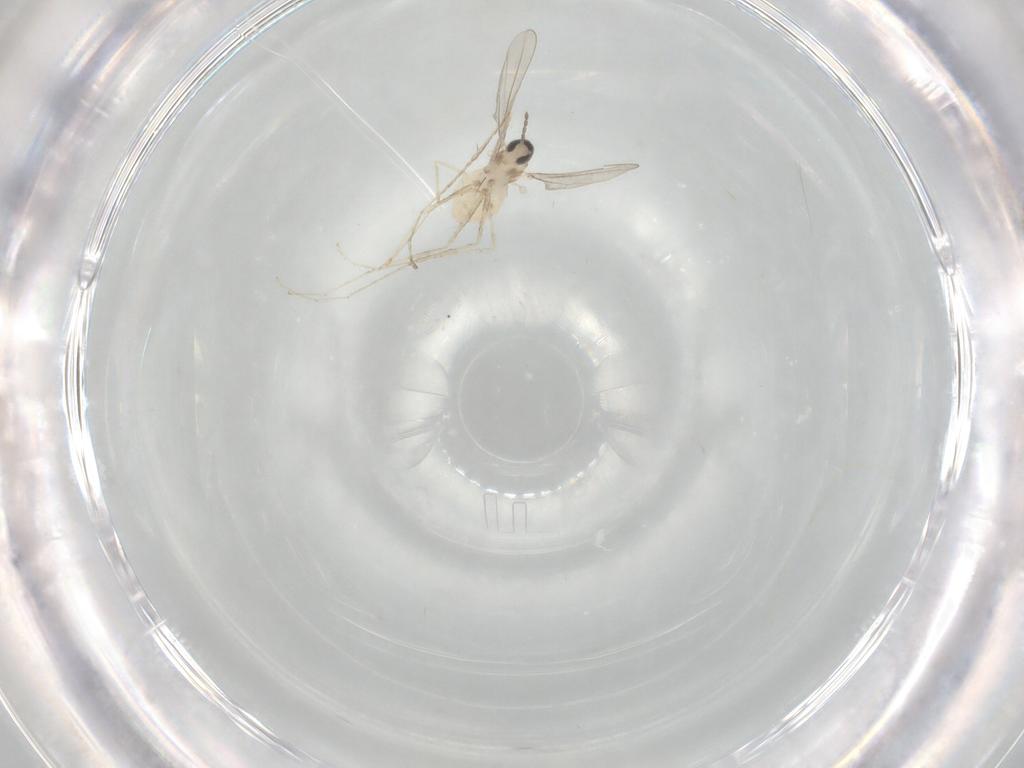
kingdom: Animalia
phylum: Arthropoda
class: Insecta
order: Diptera
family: Cecidomyiidae
